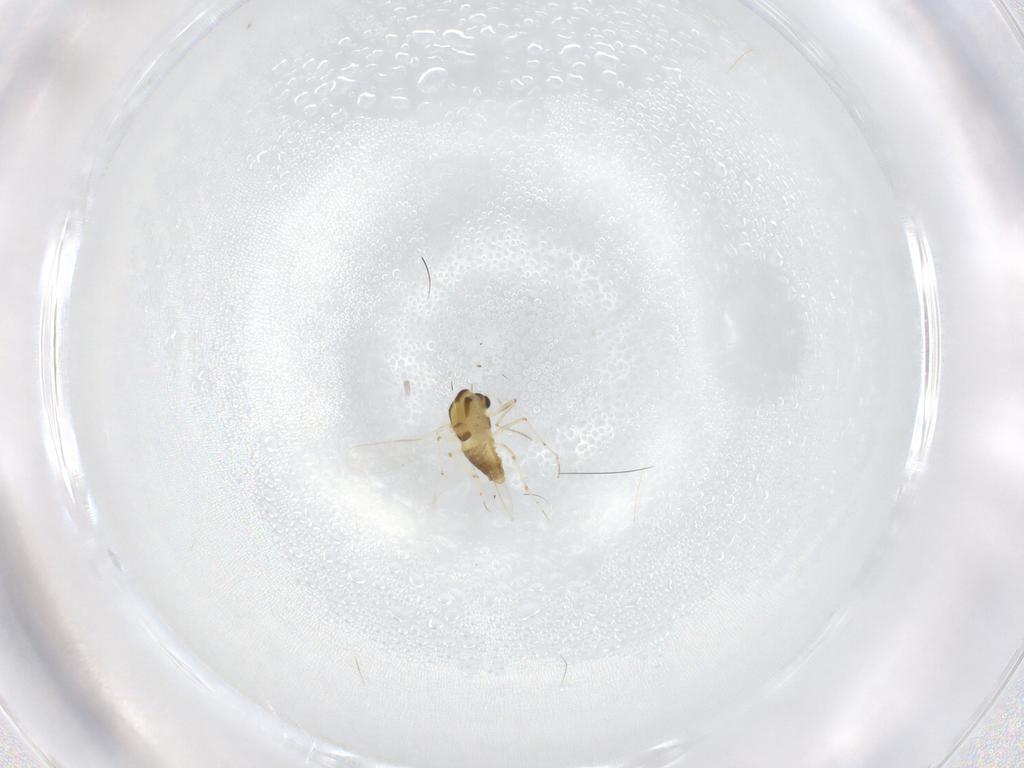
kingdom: Animalia
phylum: Arthropoda
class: Insecta
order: Diptera
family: Chironomidae
